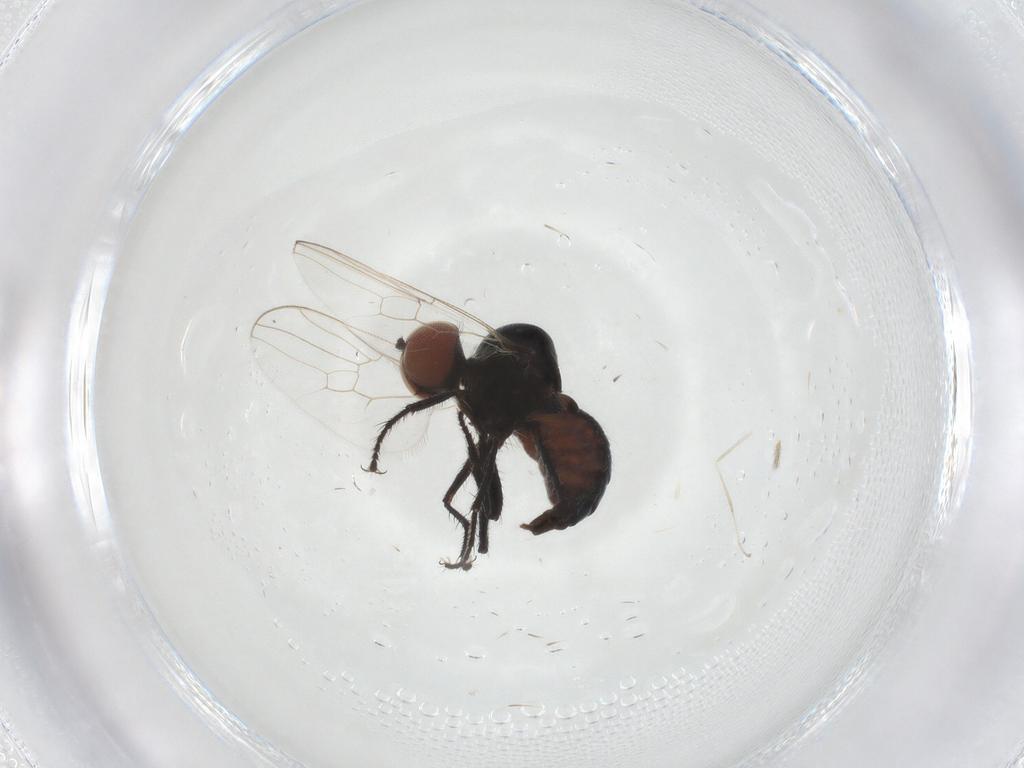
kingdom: Animalia
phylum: Arthropoda
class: Insecta
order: Diptera
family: Hybotidae
